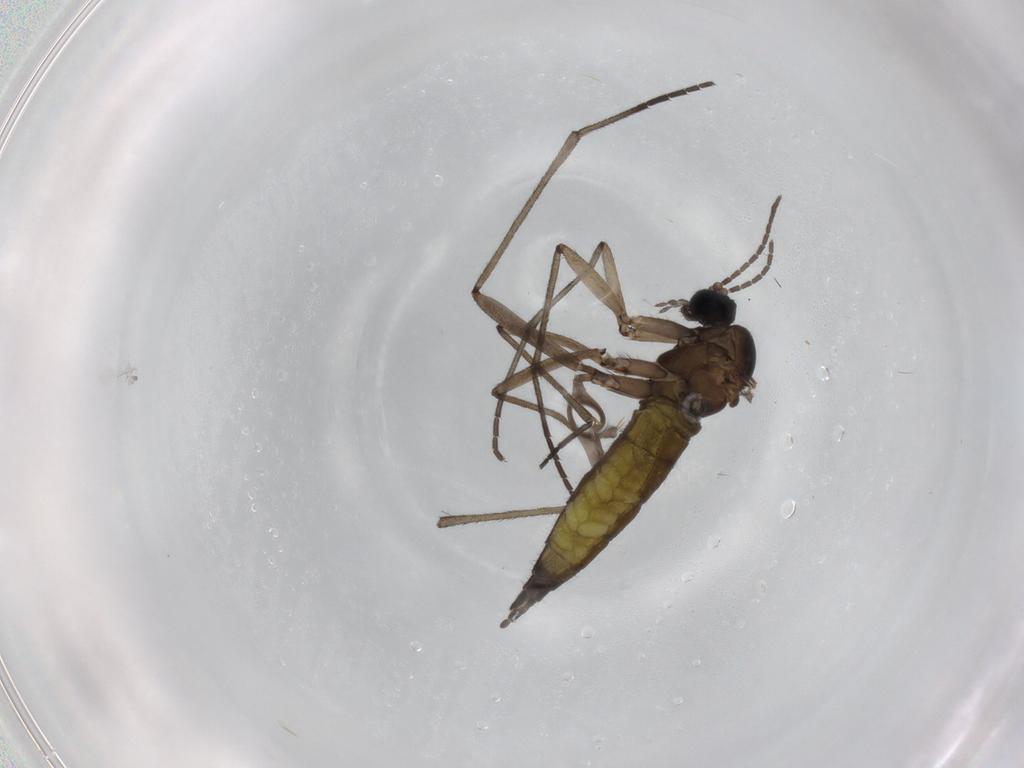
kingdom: Animalia
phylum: Arthropoda
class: Insecta
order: Diptera
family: Sciaridae
